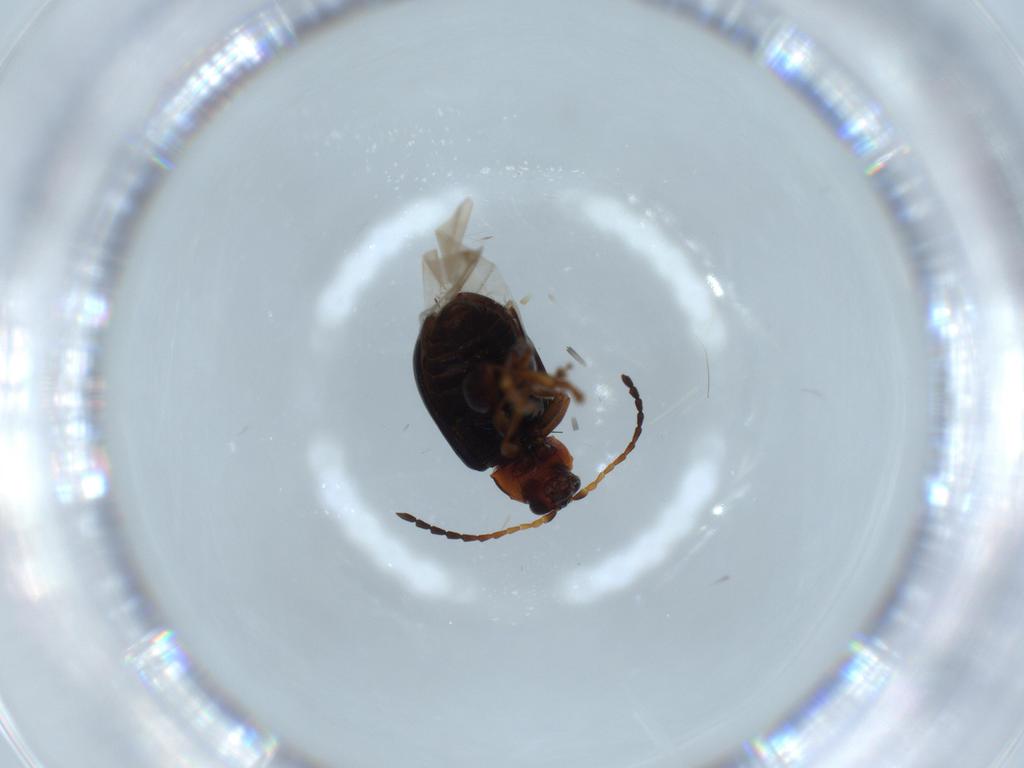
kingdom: Animalia
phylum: Arthropoda
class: Insecta
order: Coleoptera
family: Chrysomelidae
